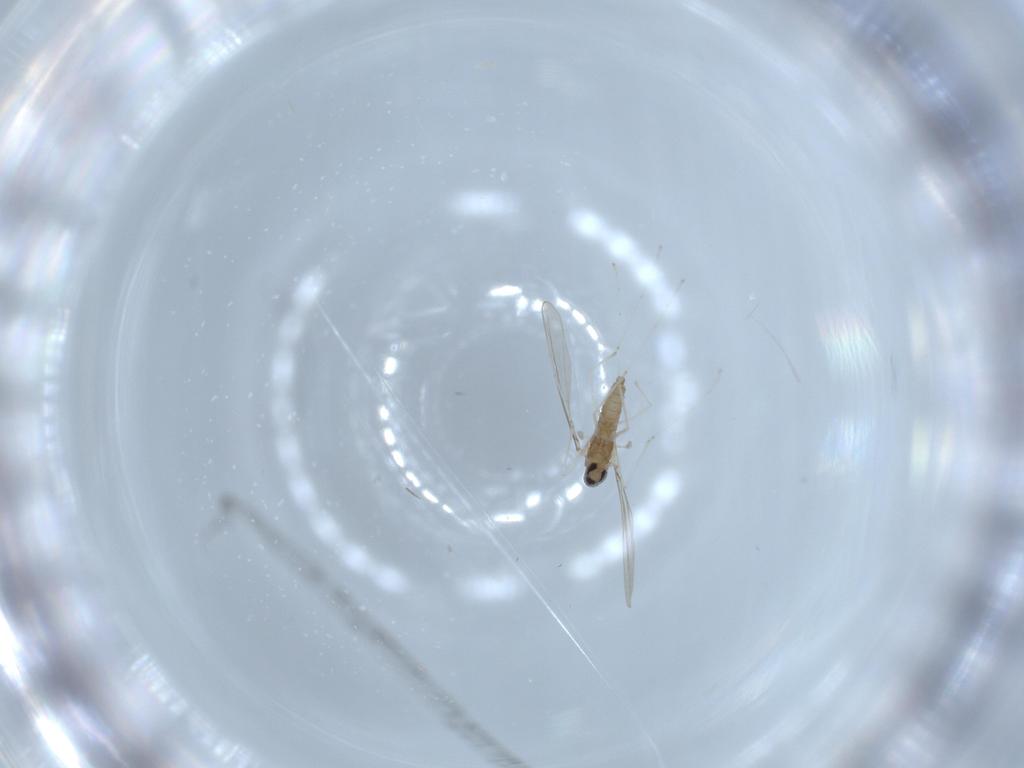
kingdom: Animalia
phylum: Arthropoda
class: Insecta
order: Diptera
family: Cecidomyiidae
